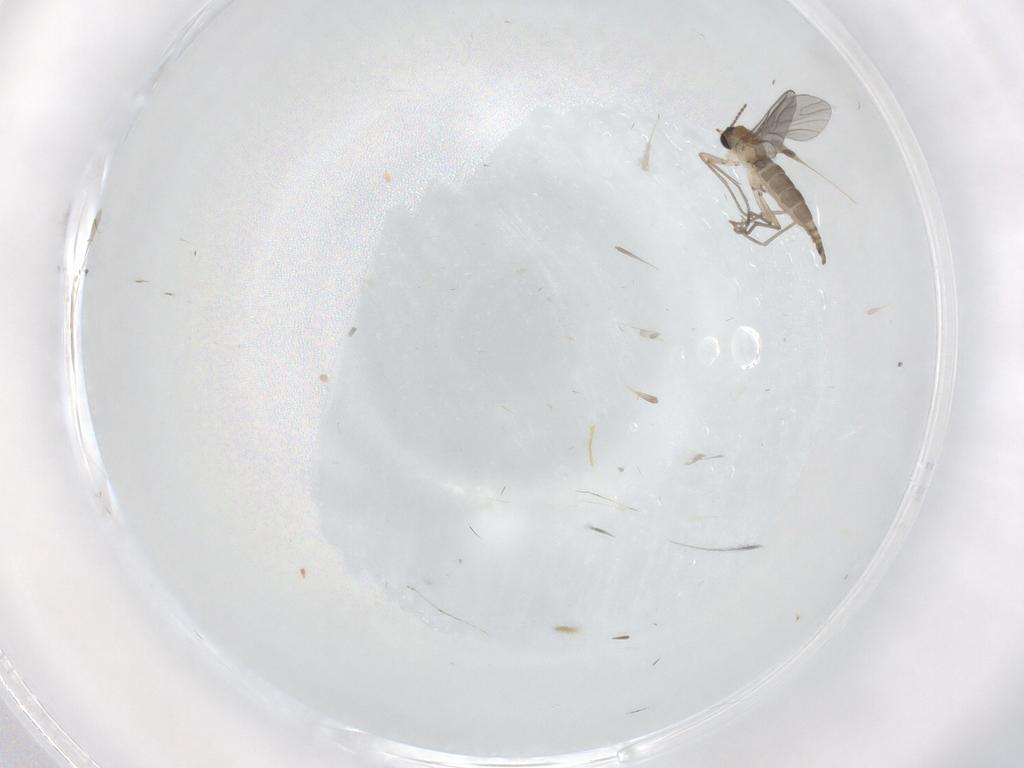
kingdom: Animalia
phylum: Arthropoda
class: Insecta
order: Diptera
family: Sciaridae
